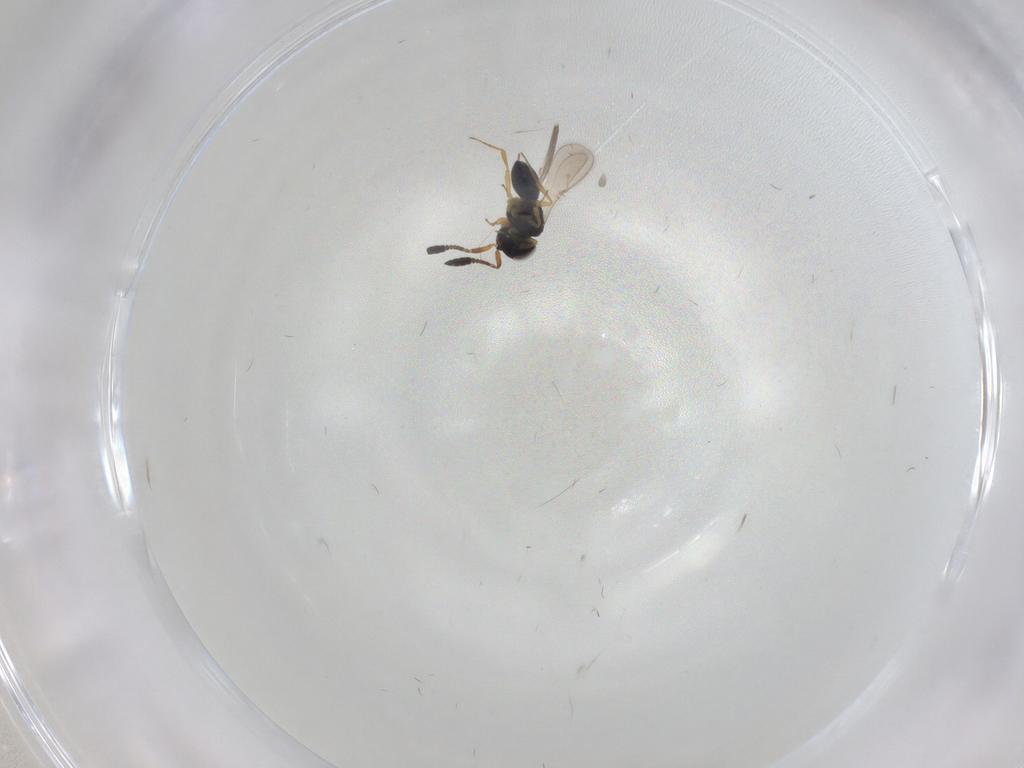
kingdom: Animalia
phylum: Arthropoda
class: Insecta
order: Hymenoptera
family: Scelionidae
